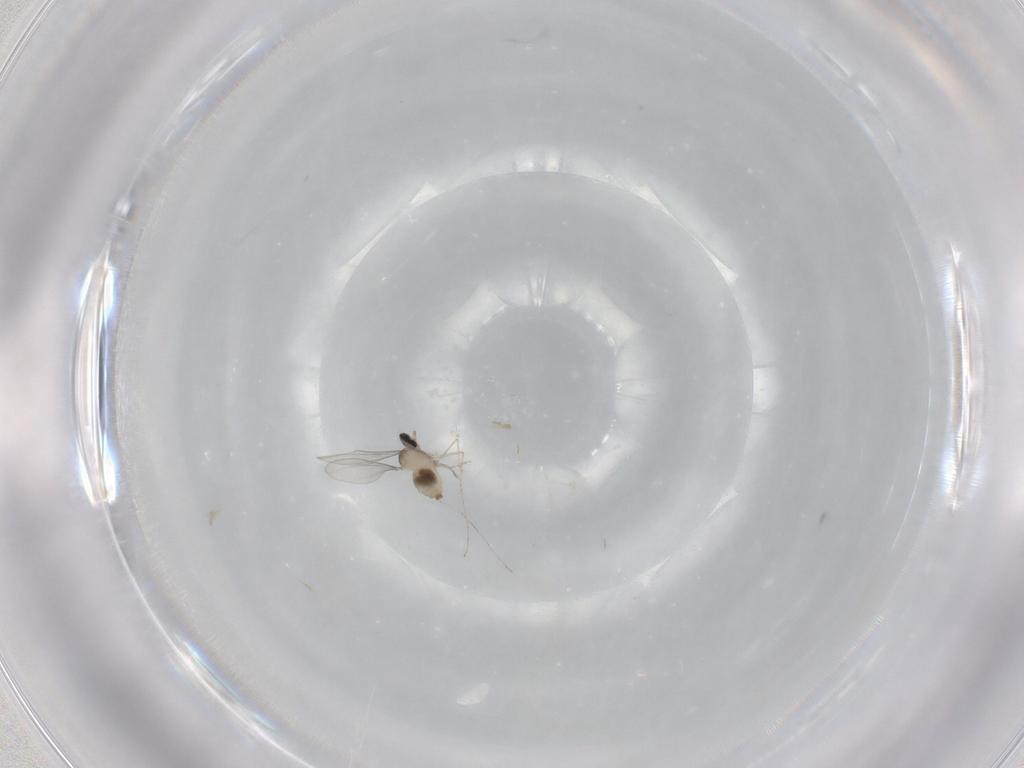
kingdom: Animalia
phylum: Arthropoda
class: Insecta
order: Diptera
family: Cecidomyiidae
